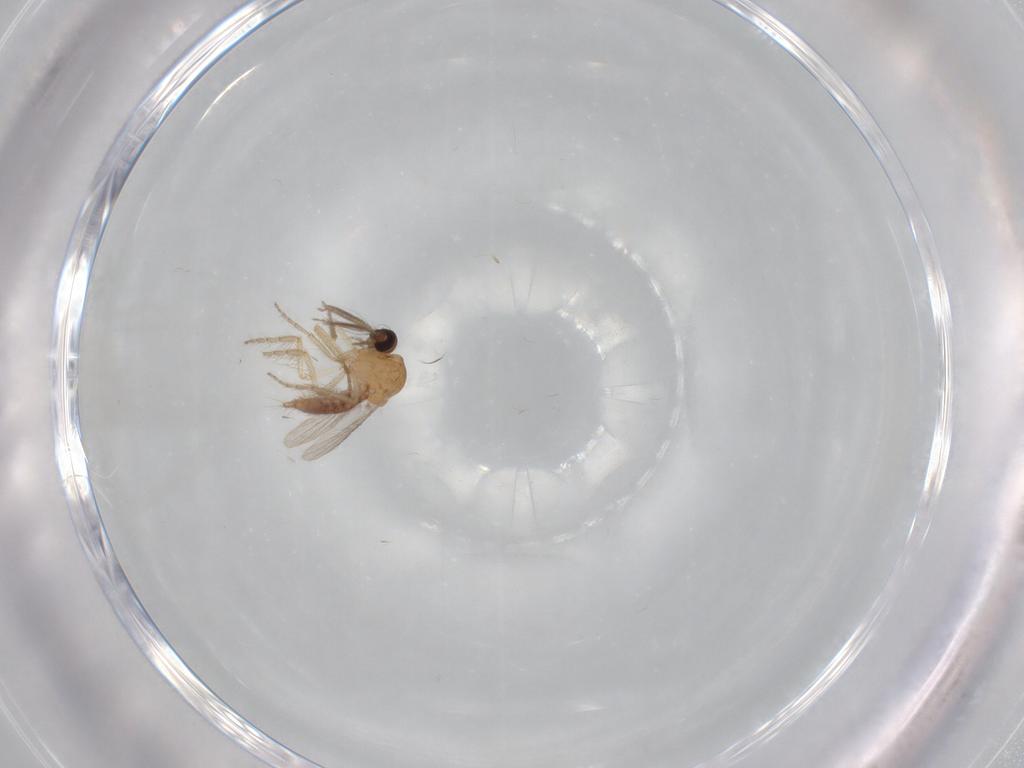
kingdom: Animalia
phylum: Arthropoda
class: Insecta
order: Diptera
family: Ceratopogonidae
